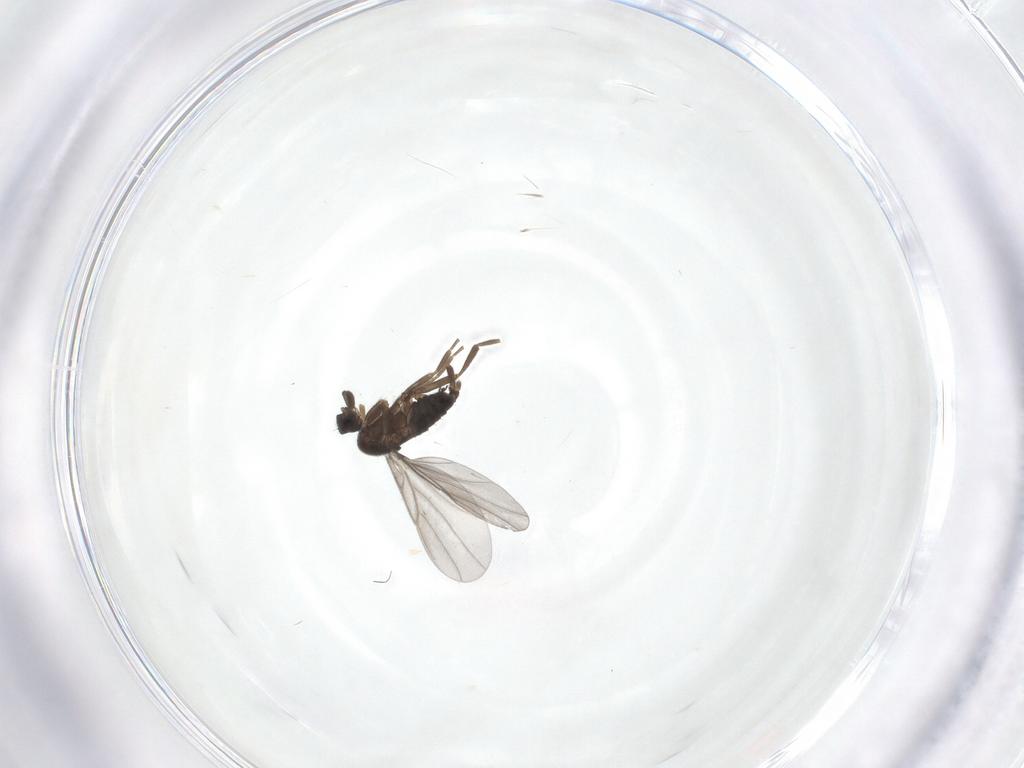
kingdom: Animalia
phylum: Arthropoda
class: Insecta
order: Diptera
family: Tipulidae
